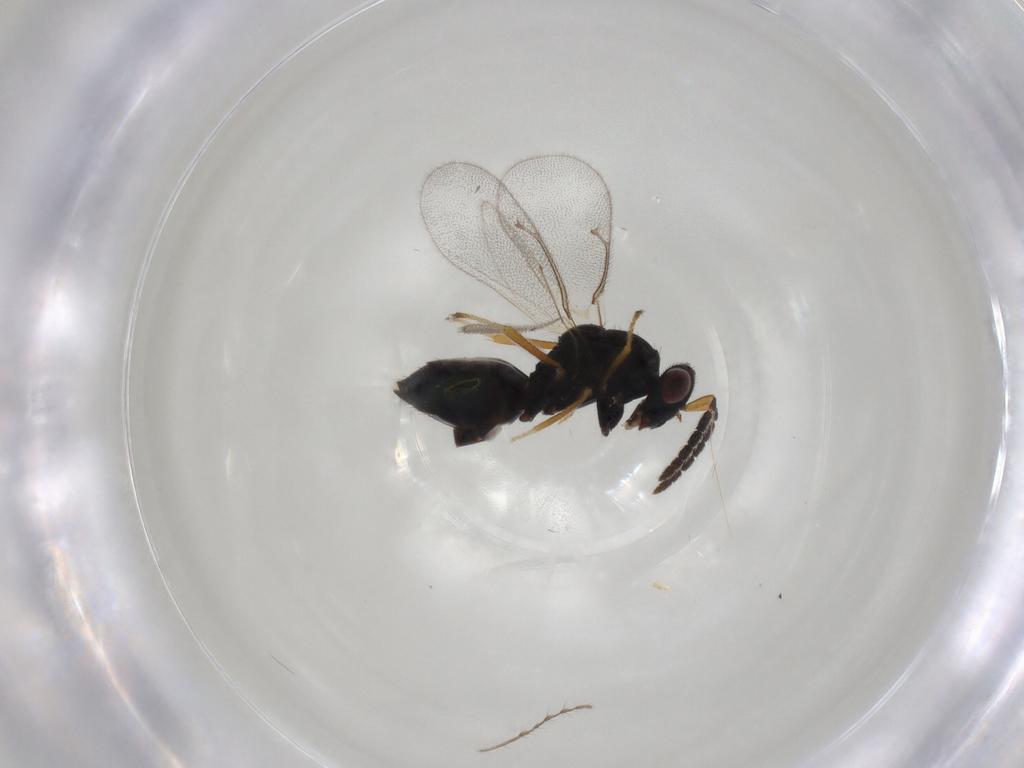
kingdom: Animalia
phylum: Arthropoda
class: Insecta
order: Hymenoptera
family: Eulophidae
